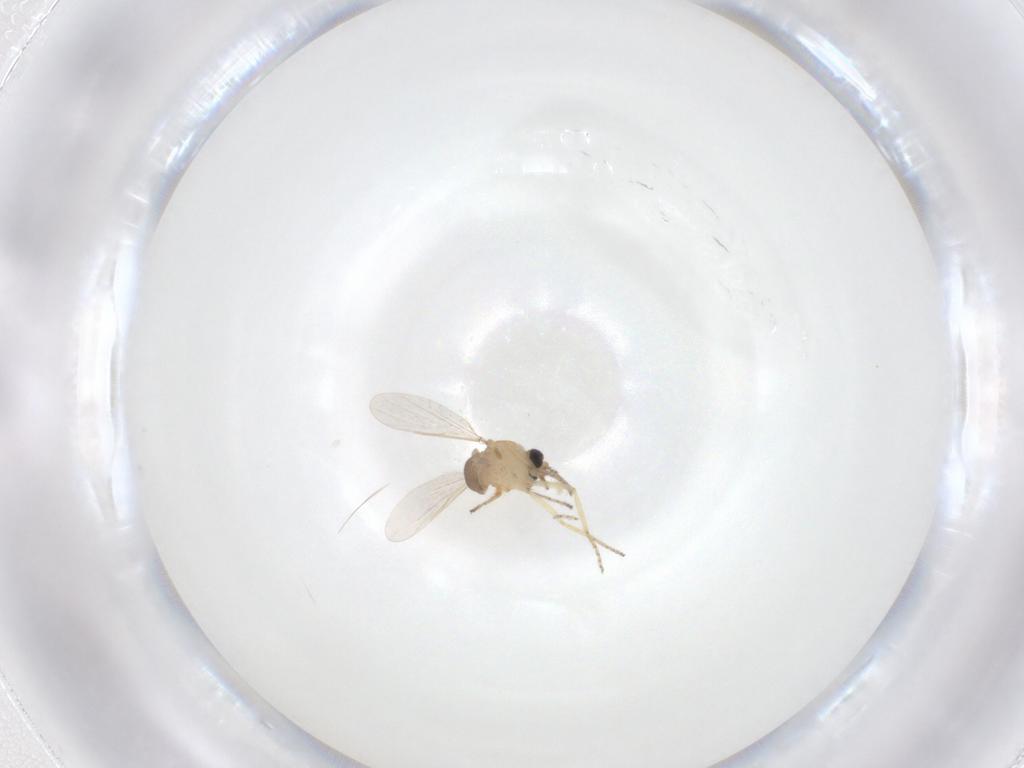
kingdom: Animalia
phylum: Arthropoda
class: Insecta
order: Diptera
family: Ceratopogonidae
